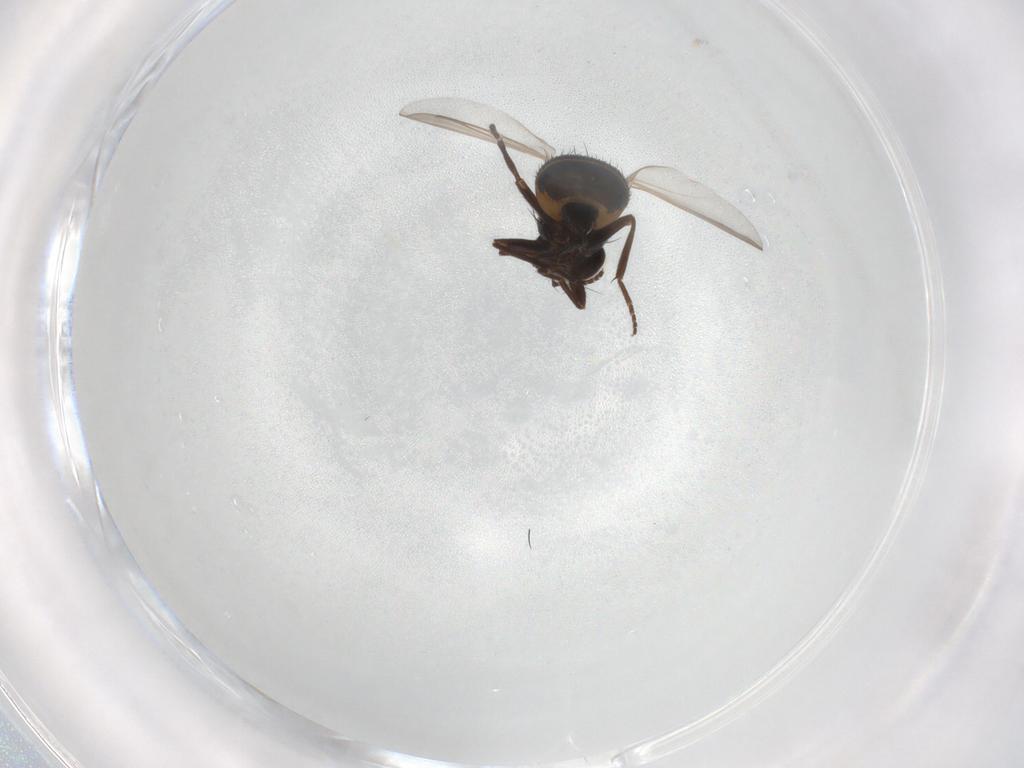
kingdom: Animalia
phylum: Arthropoda
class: Insecta
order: Diptera
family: Agromyzidae
